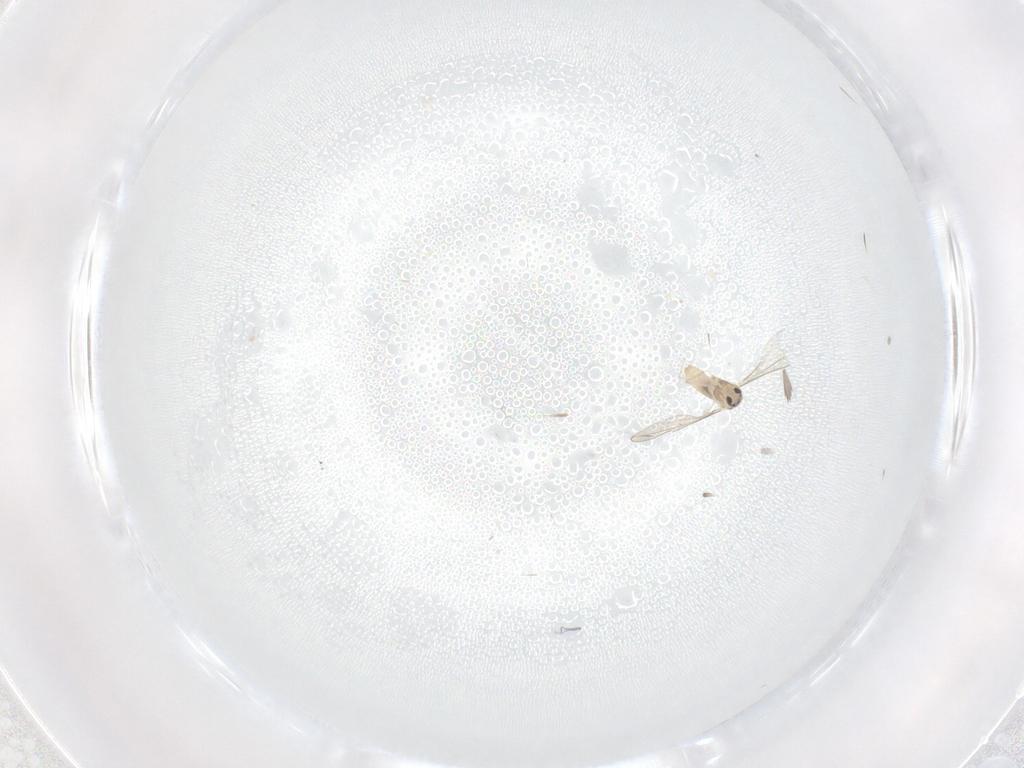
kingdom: Animalia
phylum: Arthropoda
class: Insecta
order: Diptera
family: Cecidomyiidae
